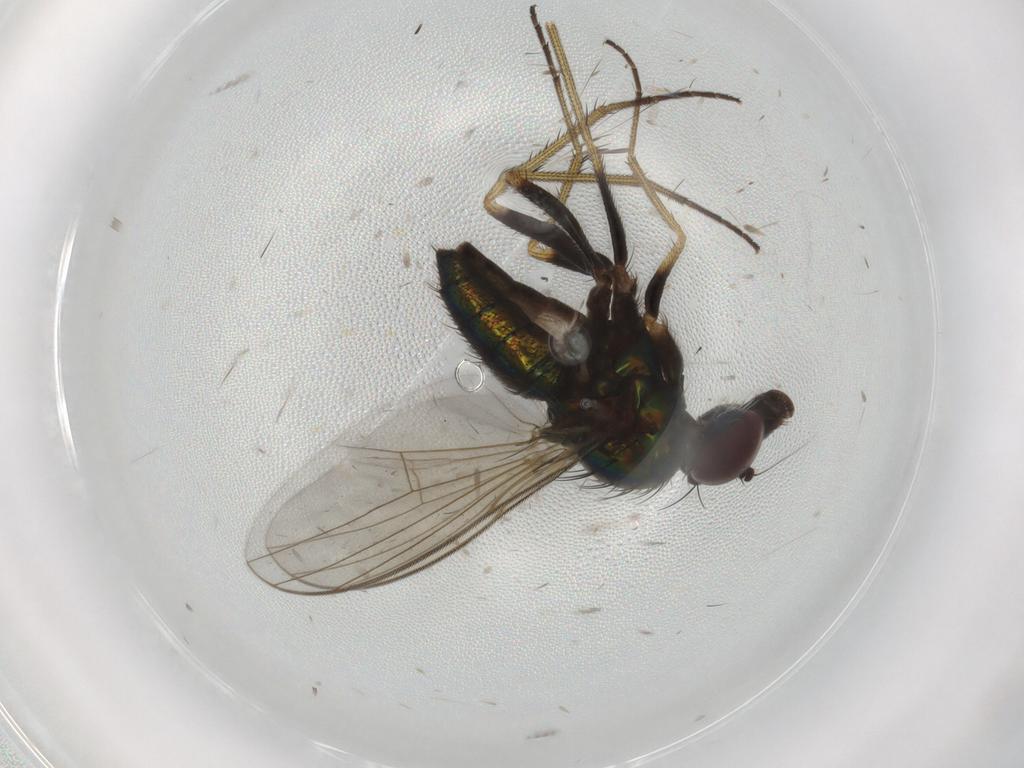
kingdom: Animalia
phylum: Arthropoda
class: Insecta
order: Diptera
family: Dolichopodidae
